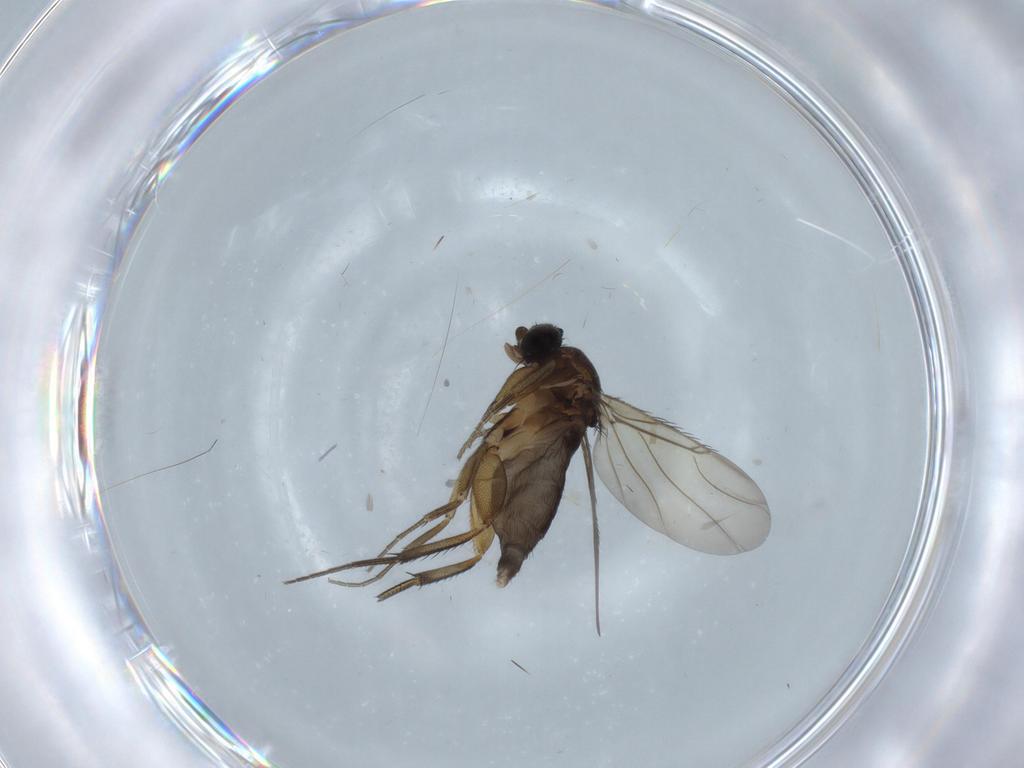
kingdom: Animalia
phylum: Arthropoda
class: Insecta
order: Diptera
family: Phoridae
